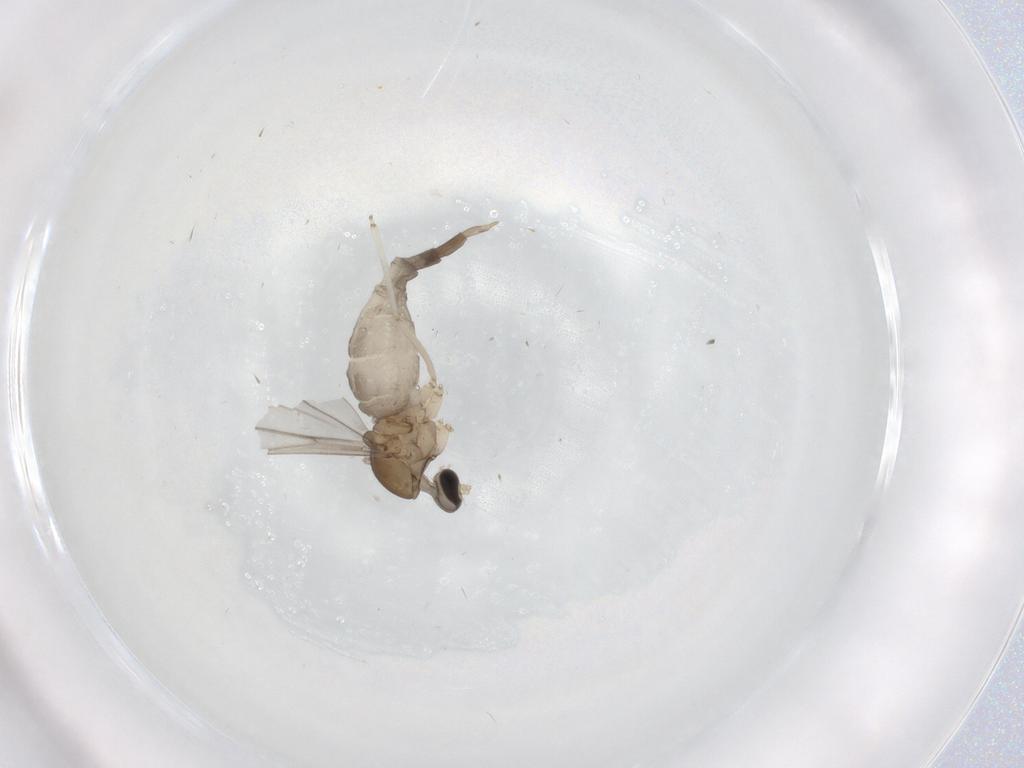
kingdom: Animalia
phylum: Arthropoda
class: Insecta
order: Diptera
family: Cecidomyiidae
